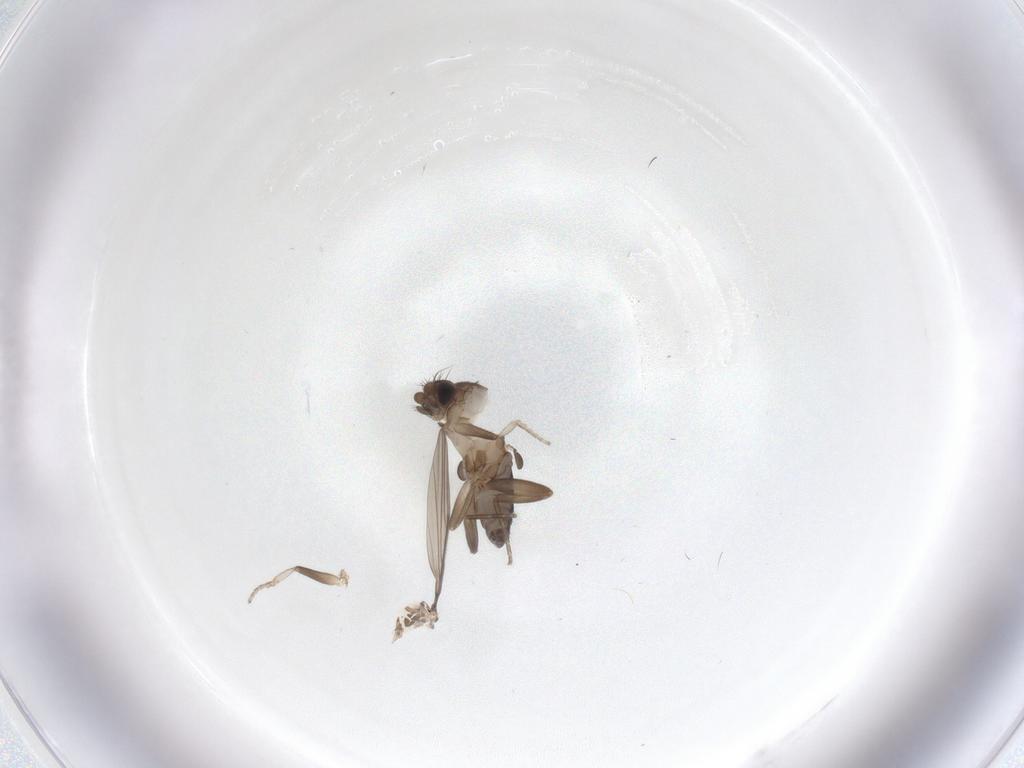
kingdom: Animalia
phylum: Arthropoda
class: Insecta
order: Diptera
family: Phoridae
